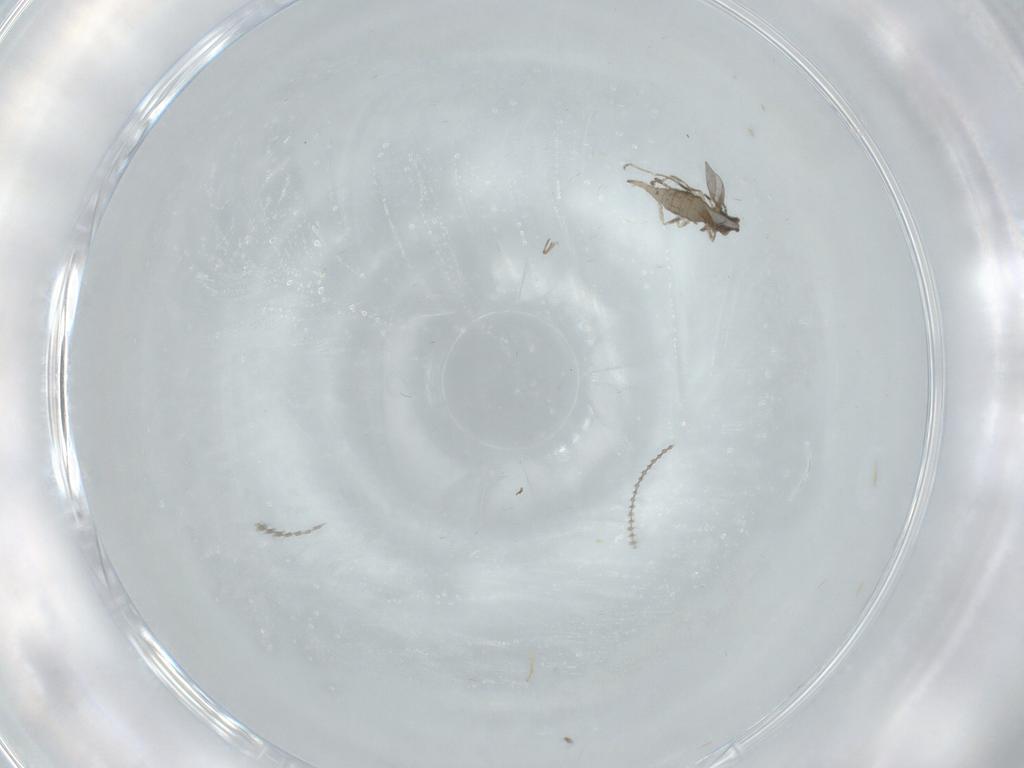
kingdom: Animalia
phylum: Arthropoda
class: Insecta
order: Diptera
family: Cecidomyiidae
